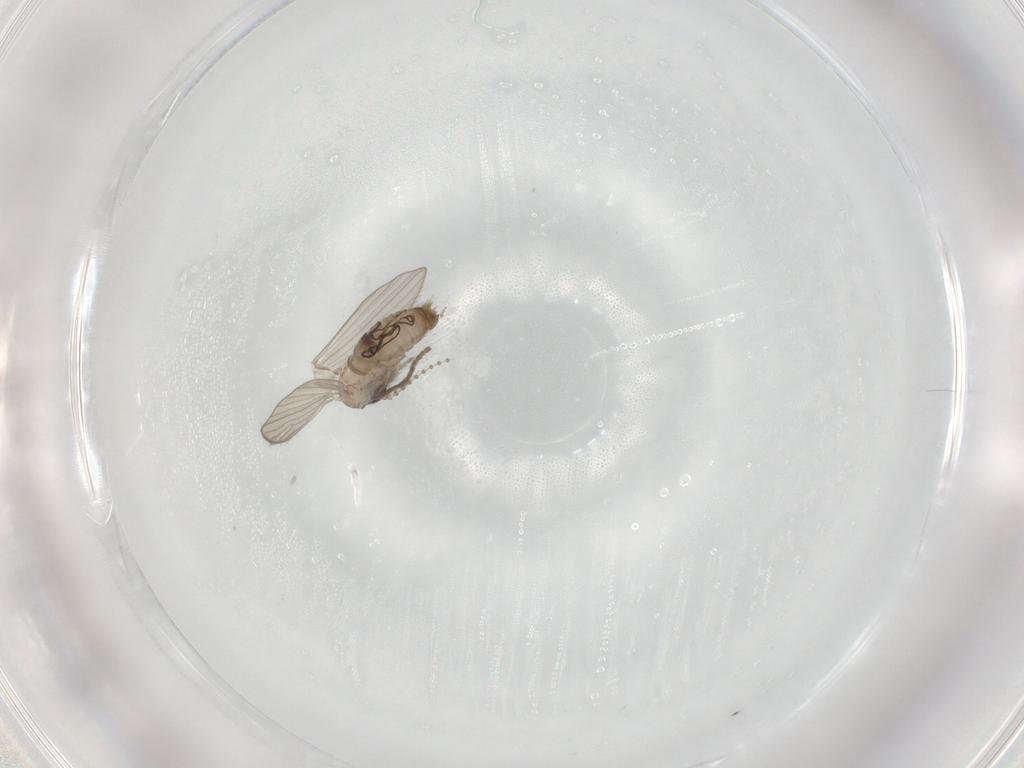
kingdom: Animalia
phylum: Arthropoda
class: Insecta
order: Diptera
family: Psychodidae
